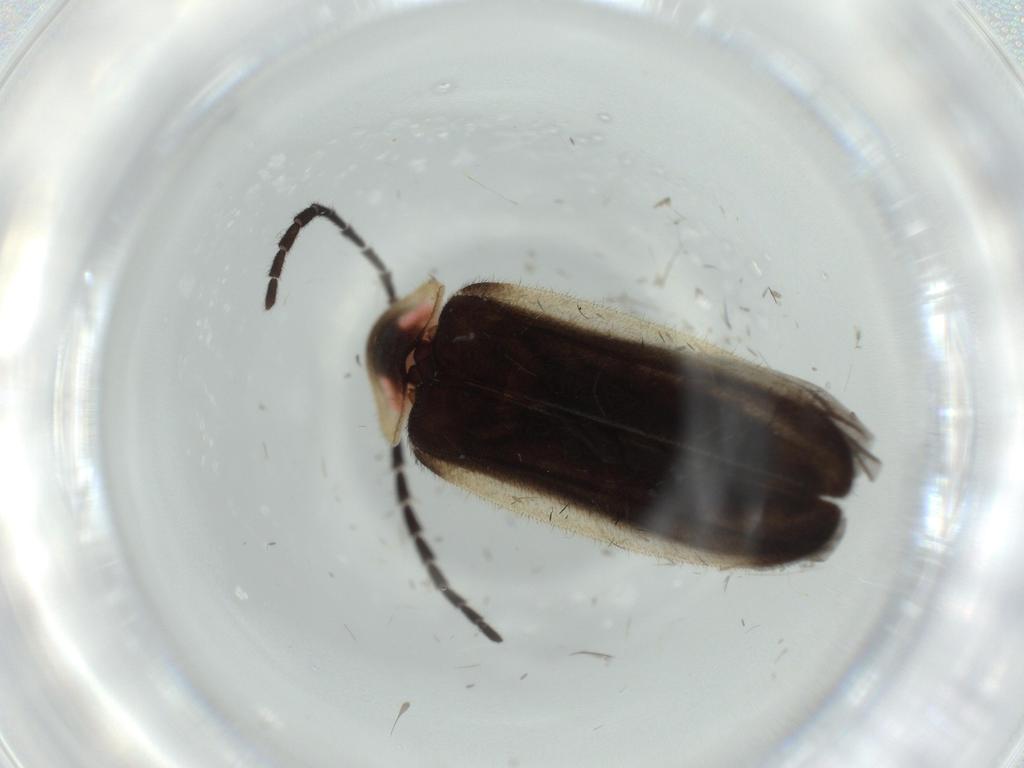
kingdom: Animalia
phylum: Arthropoda
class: Insecta
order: Coleoptera
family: Lampyridae
